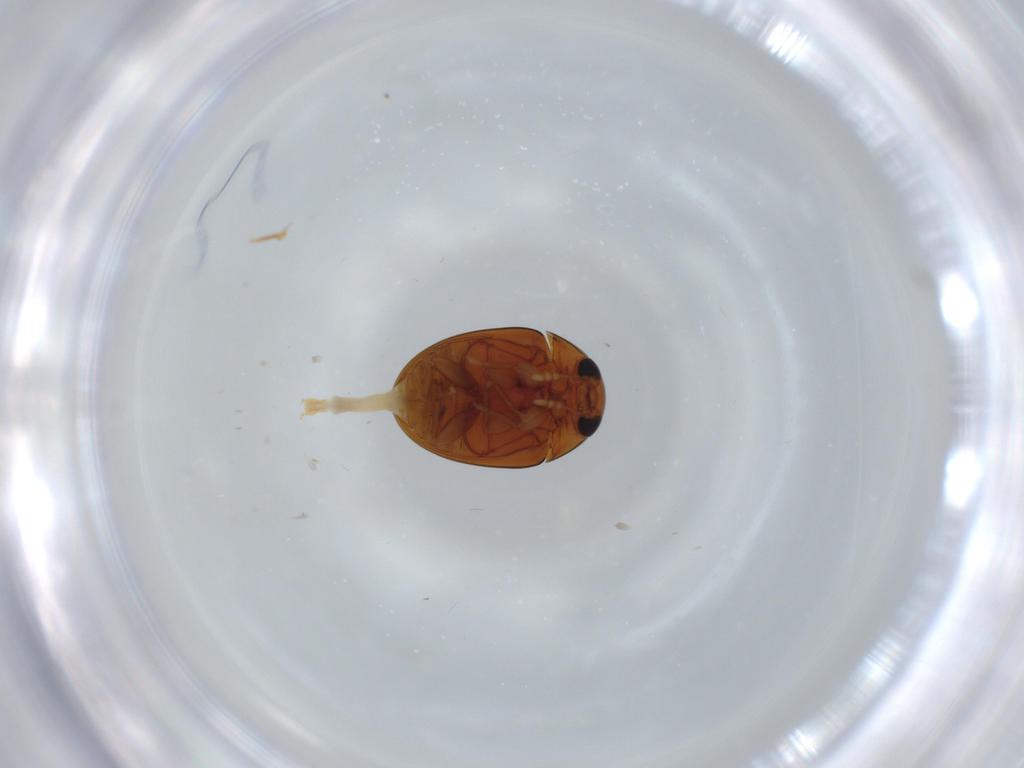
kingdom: Animalia
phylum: Arthropoda
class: Insecta
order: Coleoptera
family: Phalacridae
